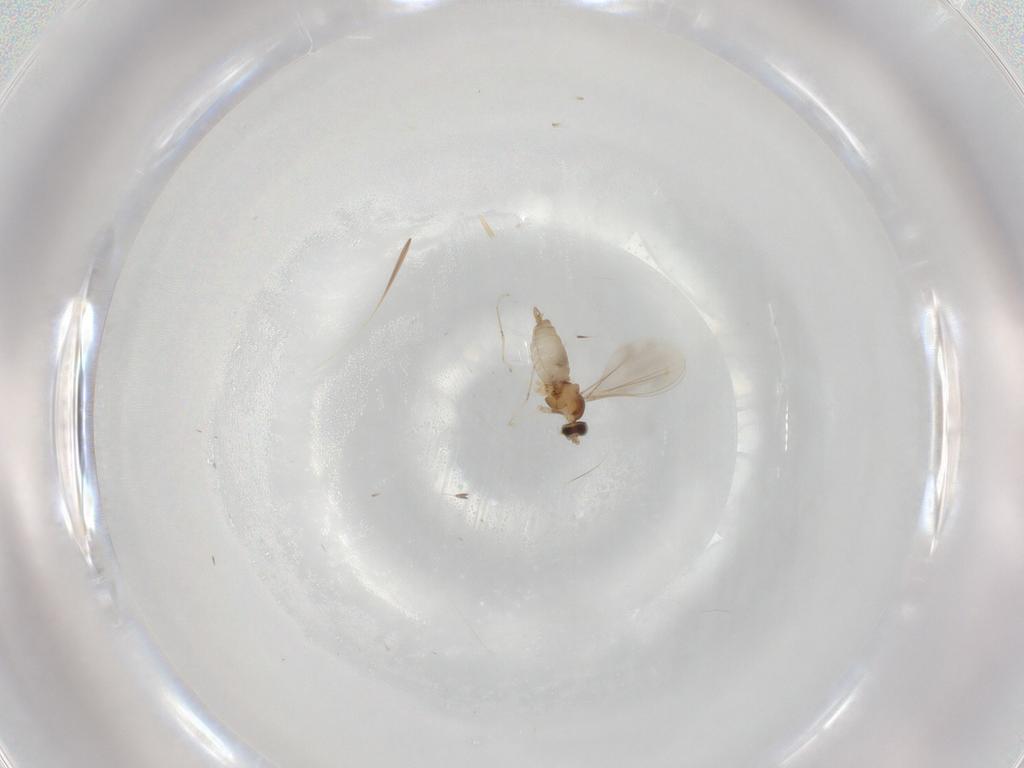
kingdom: Animalia
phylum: Arthropoda
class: Insecta
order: Diptera
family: Cecidomyiidae
